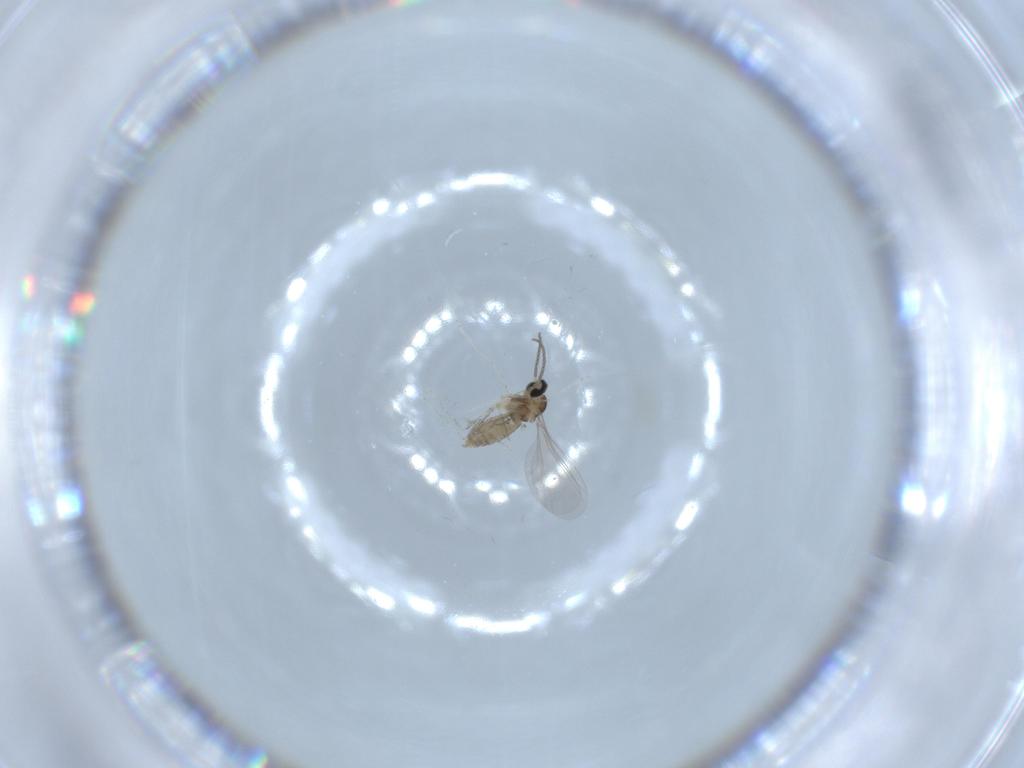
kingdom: Animalia
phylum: Arthropoda
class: Insecta
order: Diptera
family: Cecidomyiidae
